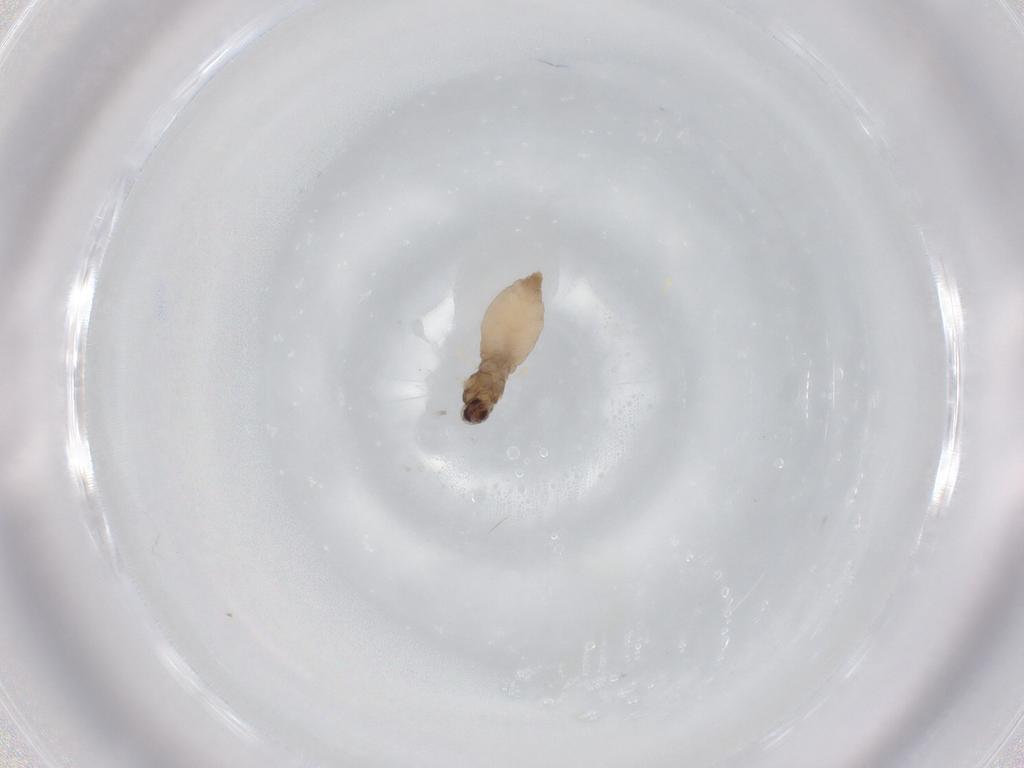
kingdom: Animalia
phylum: Arthropoda
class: Insecta
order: Diptera
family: Cecidomyiidae
